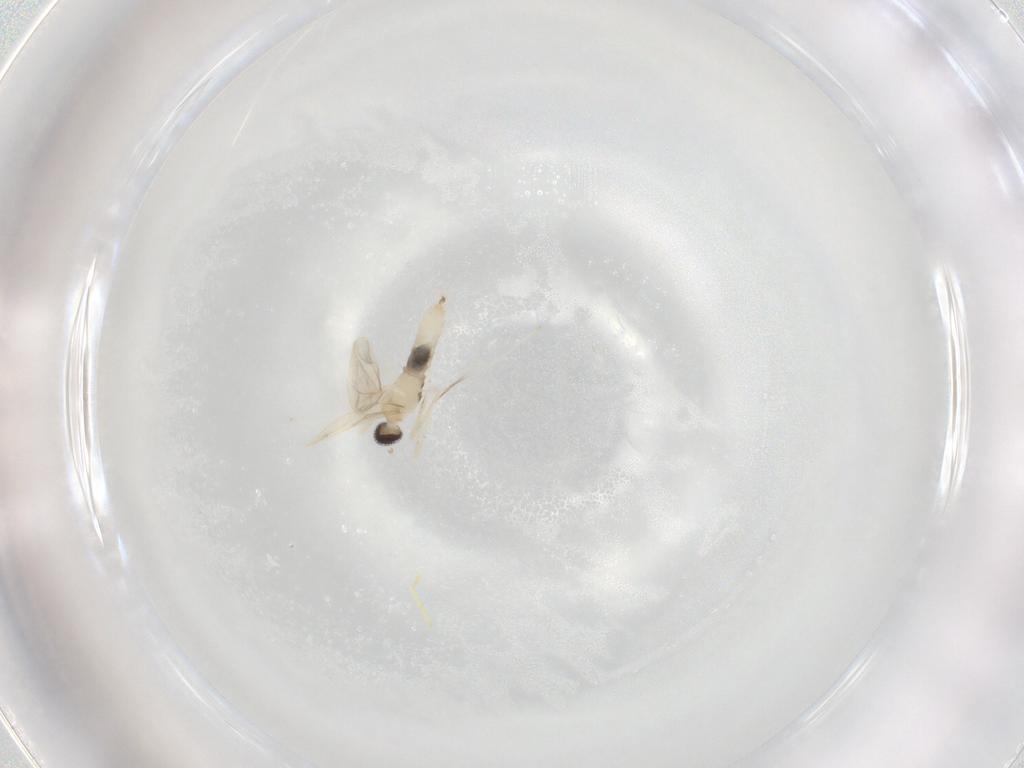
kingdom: Animalia
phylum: Arthropoda
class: Insecta
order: Diptera
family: Cecidomyiidae
